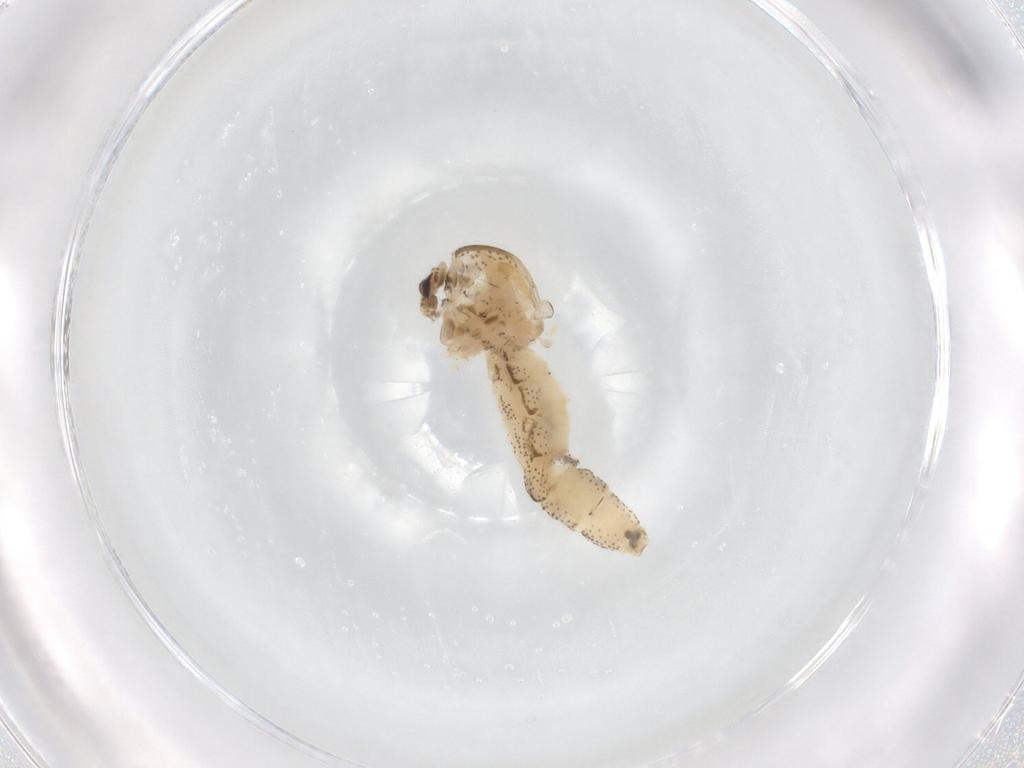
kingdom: Animalia
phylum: Arthropoda
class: Insecta
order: Diptera
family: Chaoboridae
